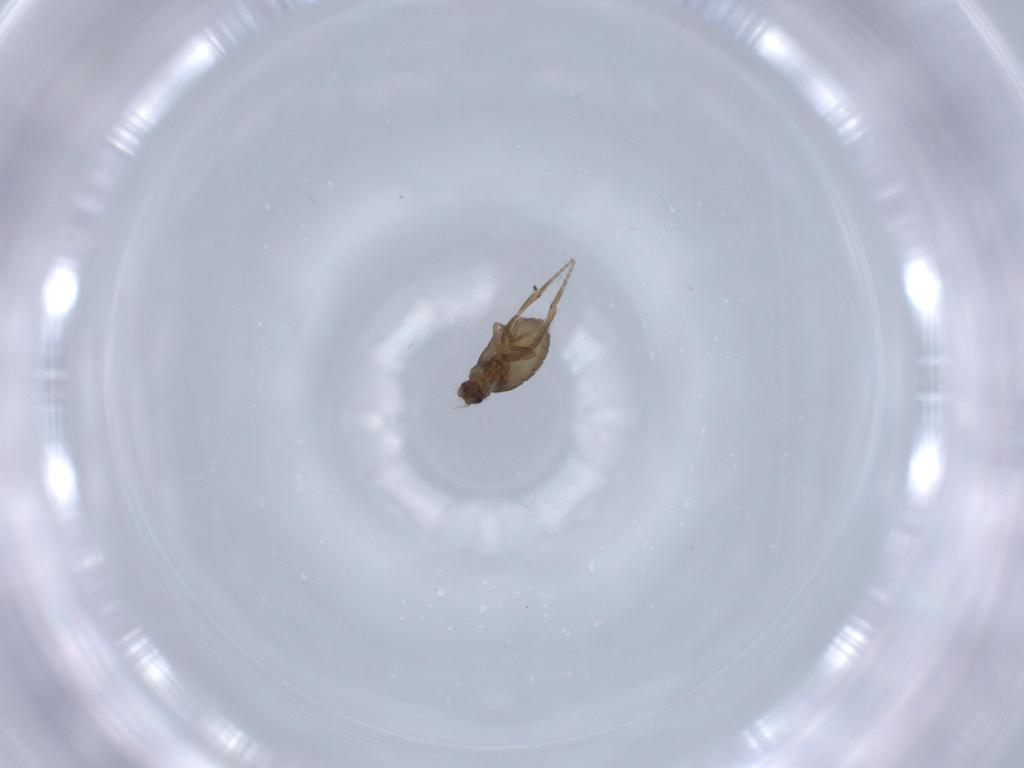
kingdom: Animalia
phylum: Arthropoda
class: Insecta
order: Diptera
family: Phoridae
